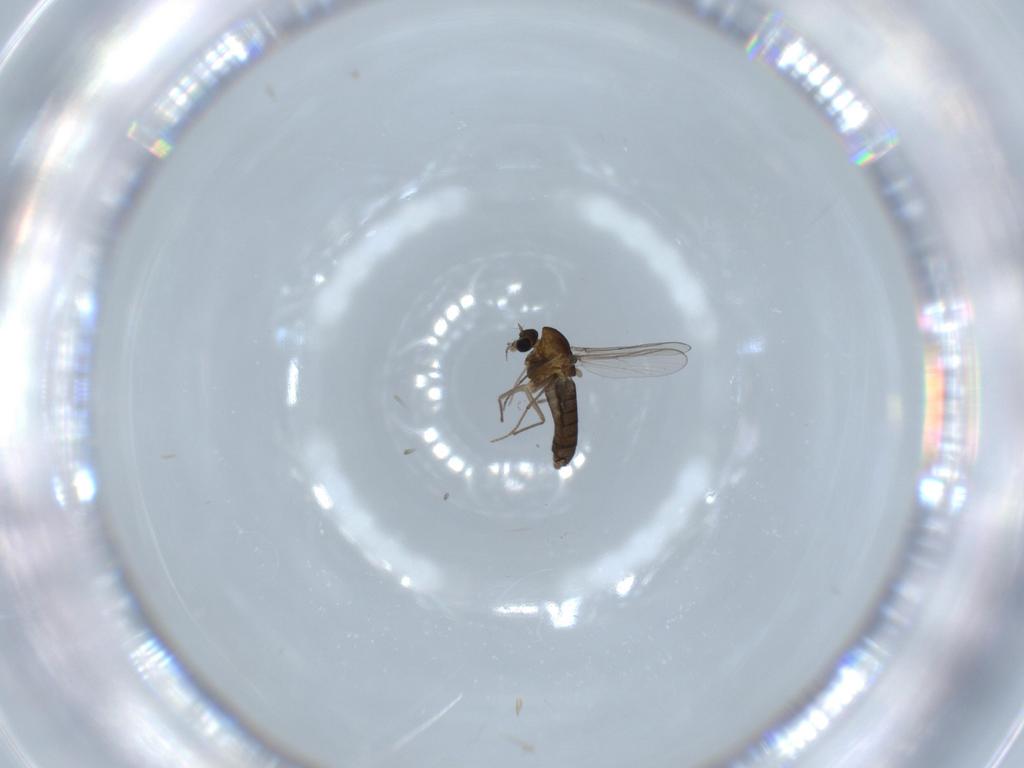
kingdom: Animalia
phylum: Arthropoda
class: Insecta
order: Diptera
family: Chironomidae
